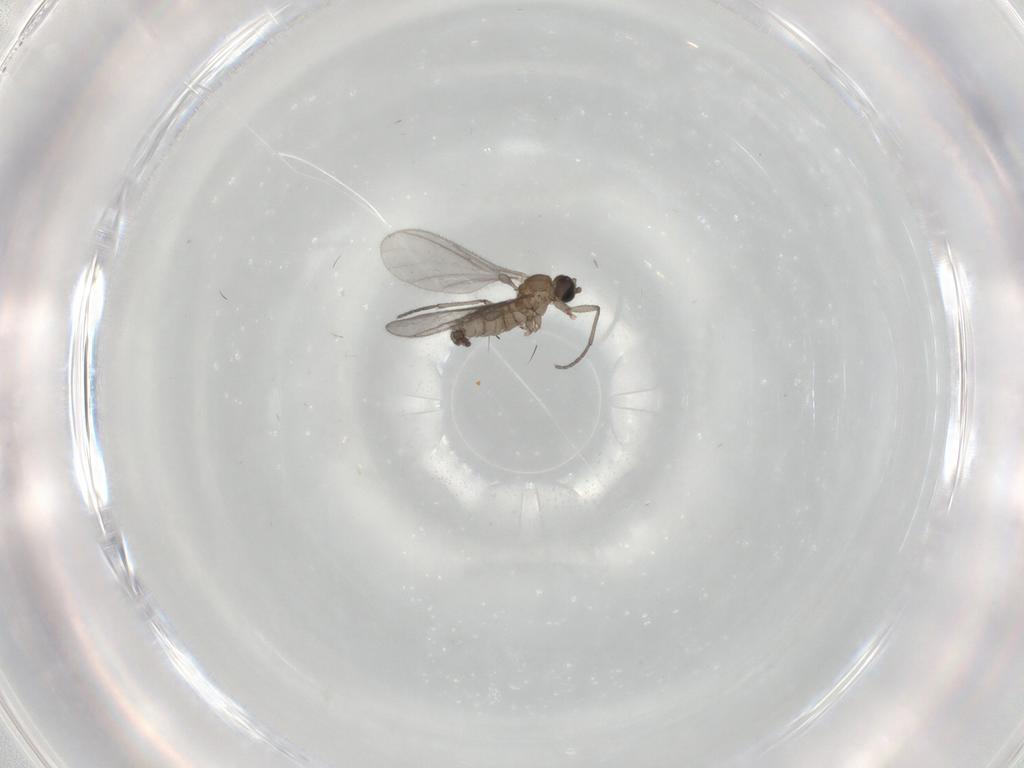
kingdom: Animalia
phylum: Arthropoda
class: Insecta
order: Diptera
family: Sciaridae
